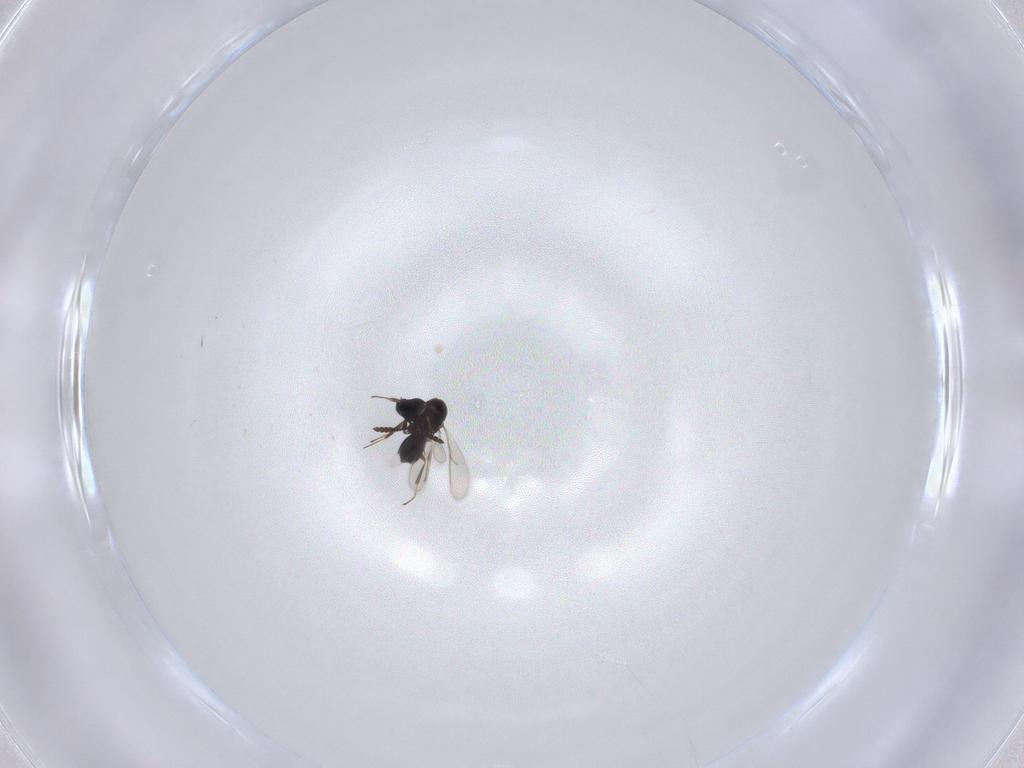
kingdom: Animalia
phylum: Arthropoda
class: Insecta
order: Hymenoptera
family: Scelionidae
